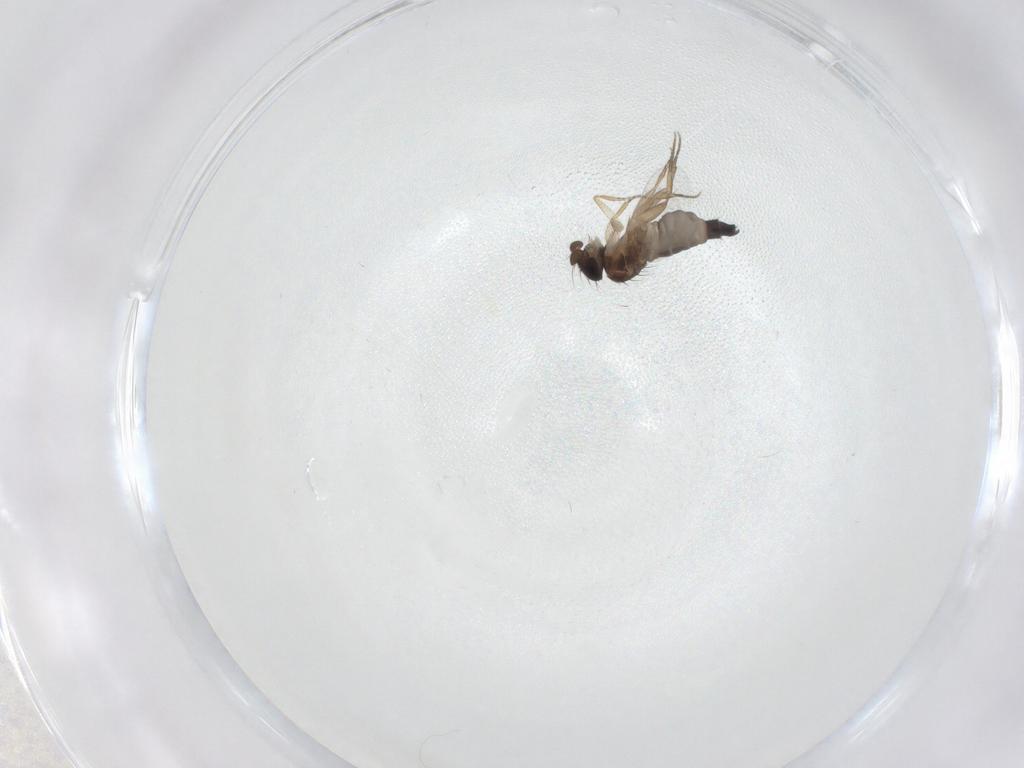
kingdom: Animalia
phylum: Arthropoda
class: Insecta
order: Diptera
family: Phoridae
